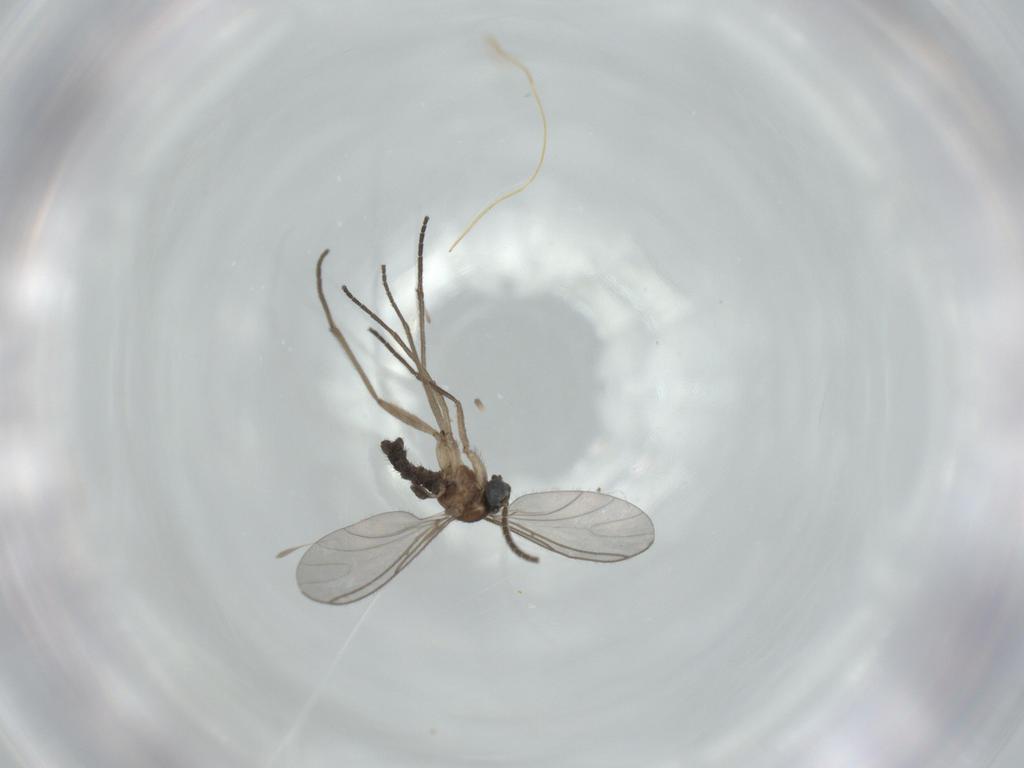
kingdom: Animalia
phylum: Arthropoda
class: Insecta
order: Diptera
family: Sciaridae
